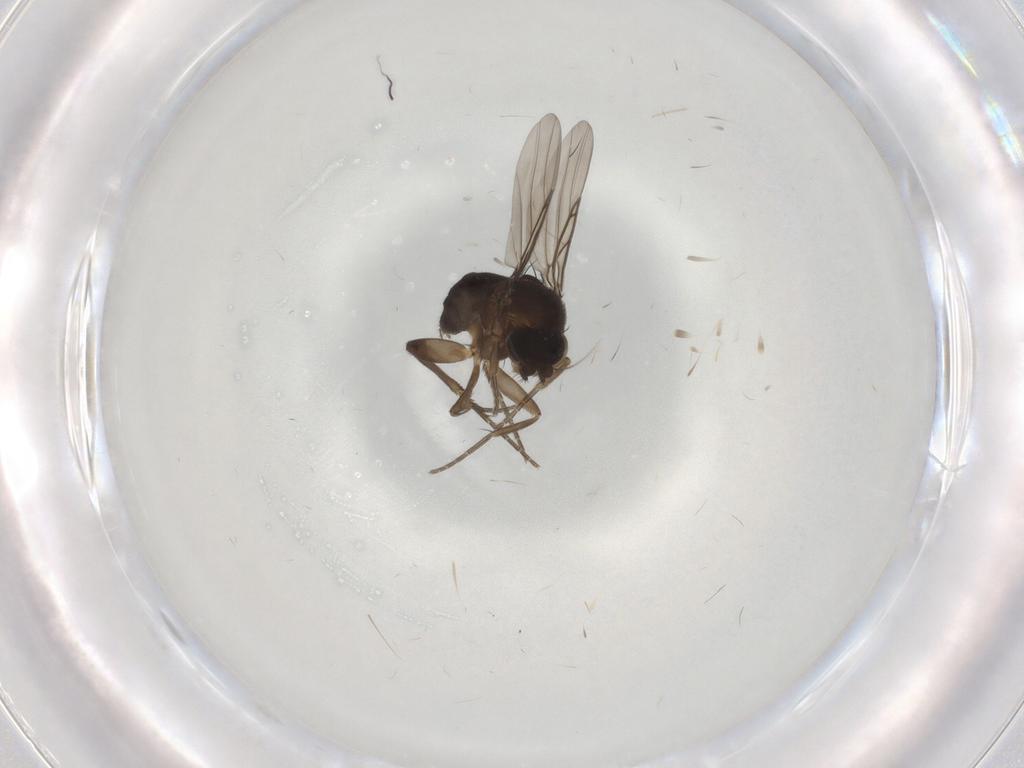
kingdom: Animalia
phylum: Arthropoda
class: Insecta
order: Diptera
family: Phoridae
